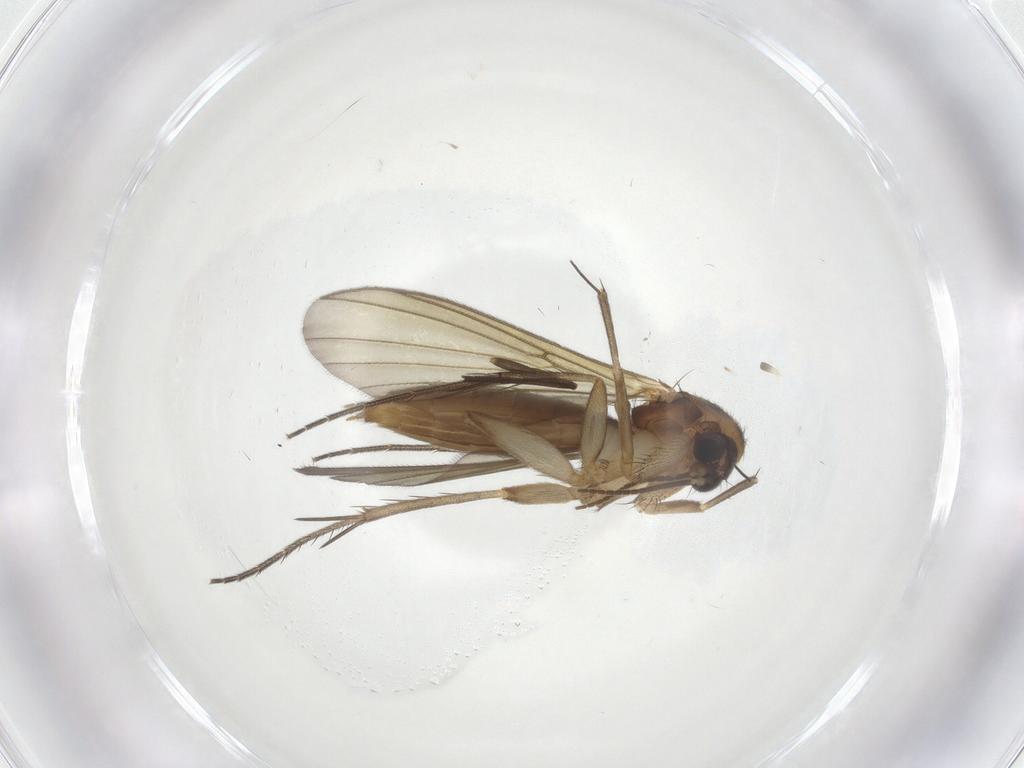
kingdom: Animalia
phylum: Arthropoda
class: Insecta
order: Diptera
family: Mycetophilidae
